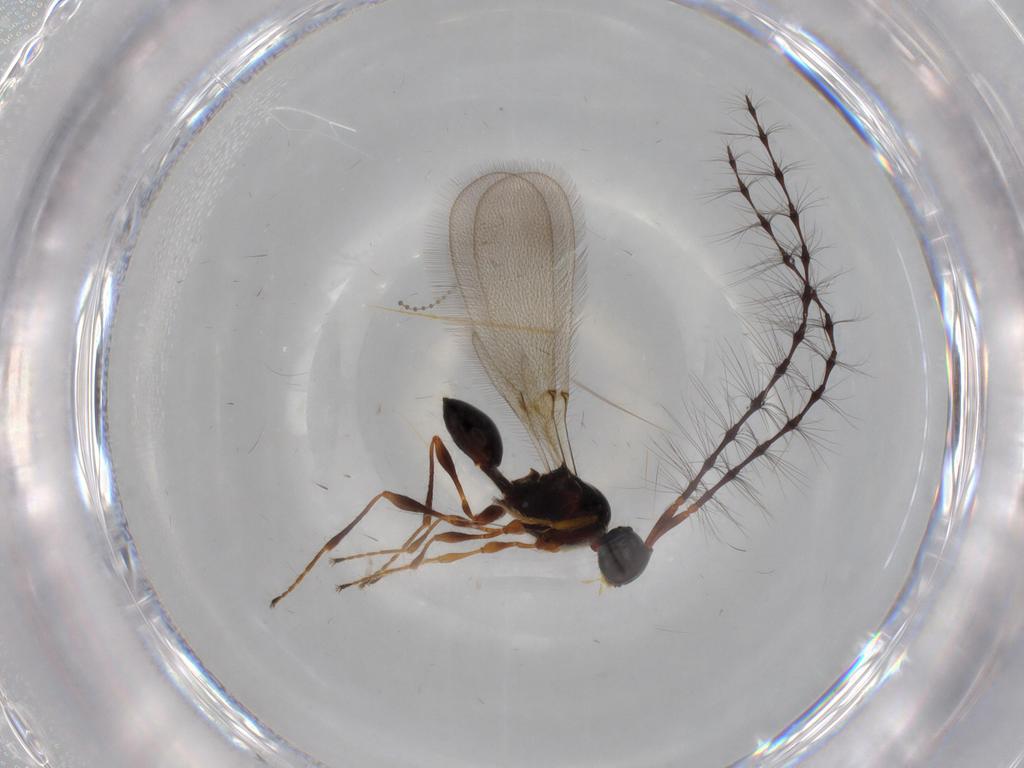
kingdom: Animalia
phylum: Arthropoda
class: Insecta
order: Hymenoptera
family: Diapriidae
